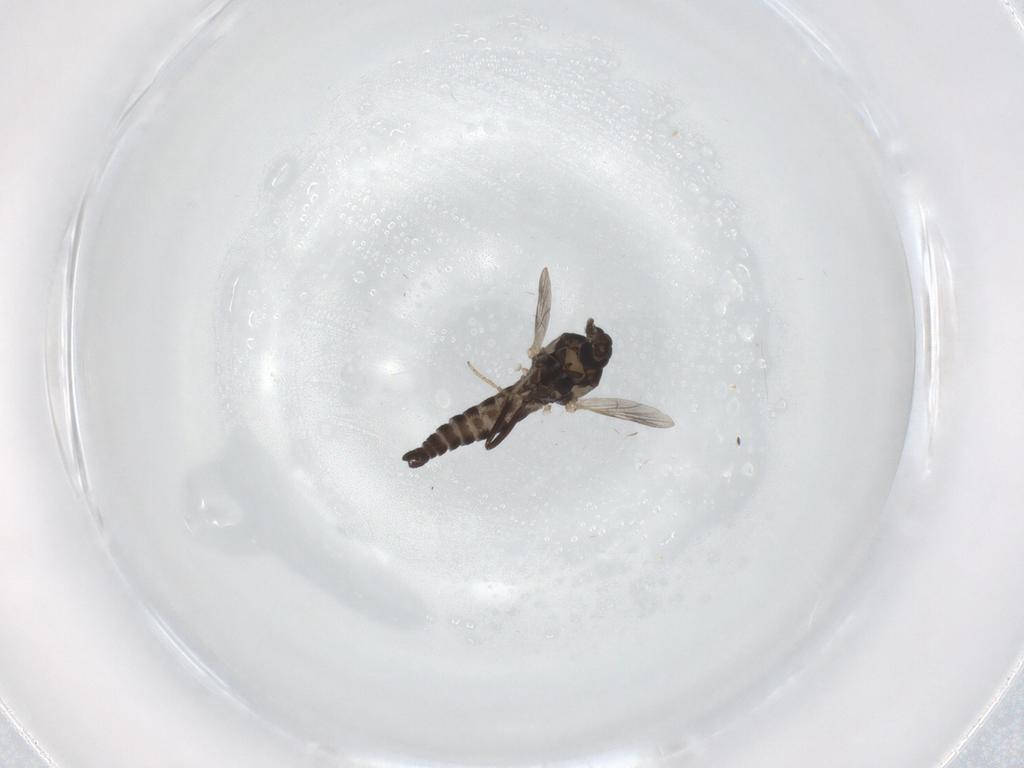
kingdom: Animalia
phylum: Arthropoda
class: Insecta
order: Diptera
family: Ceratopogonidae
